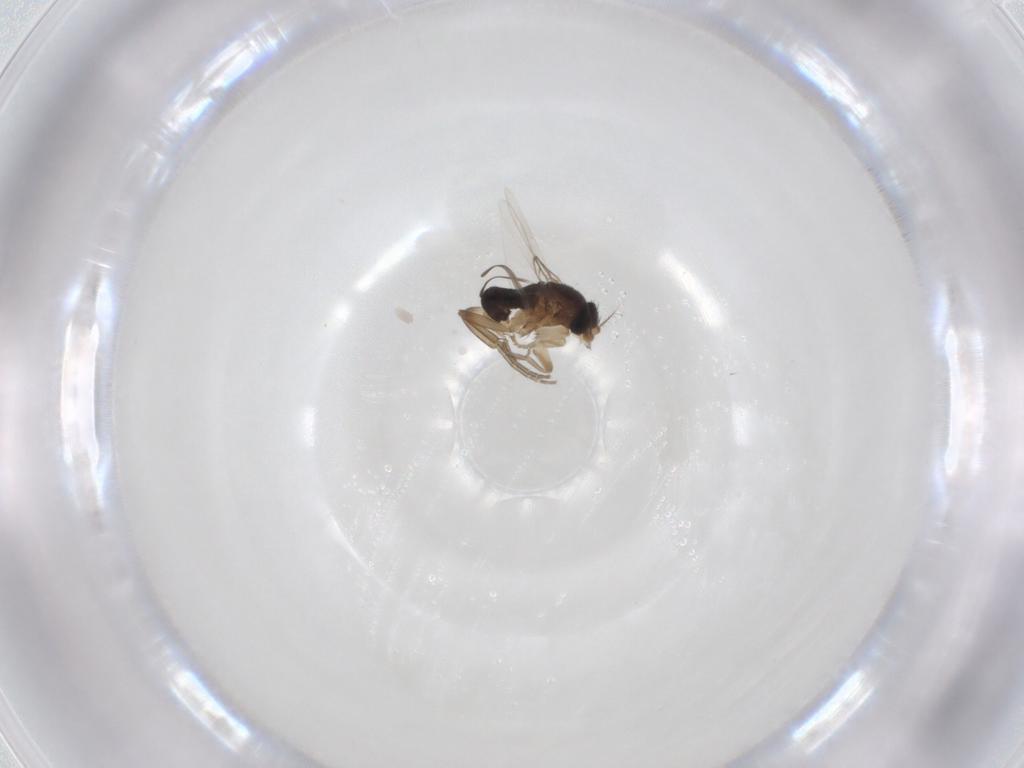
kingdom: Animalia
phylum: Arthropoda
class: Insecta
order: Diptera
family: Phoridae
